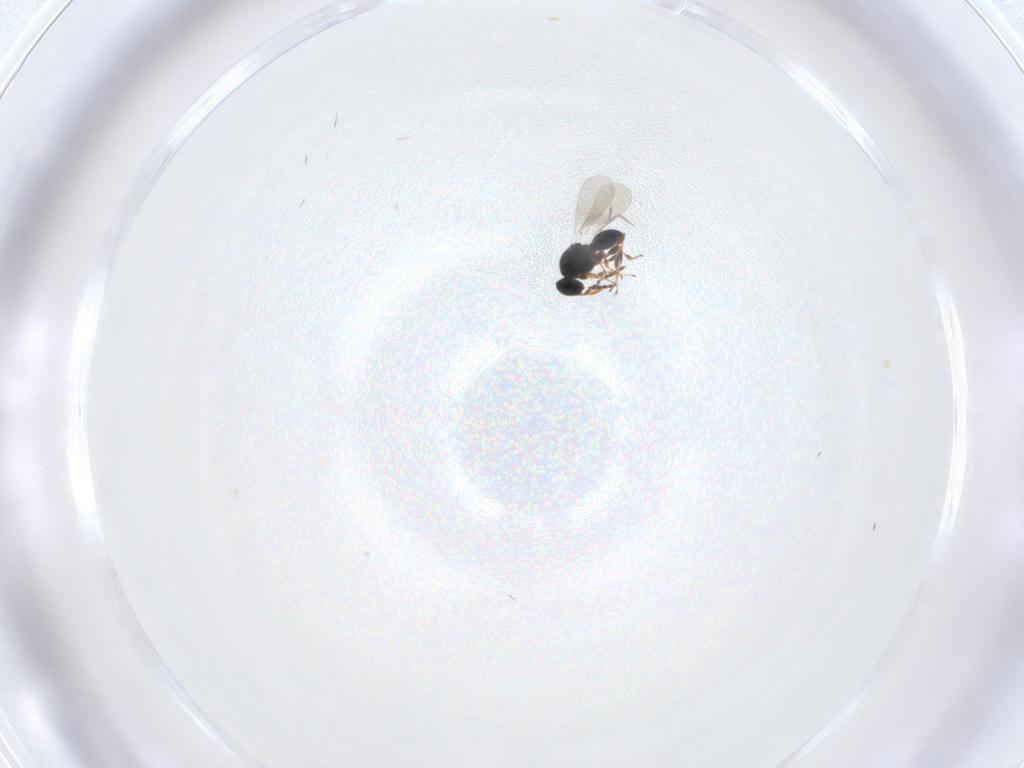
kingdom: Animalia
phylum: Arthropoda
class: Insecta
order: Hymenoptera
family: Platygastridae
